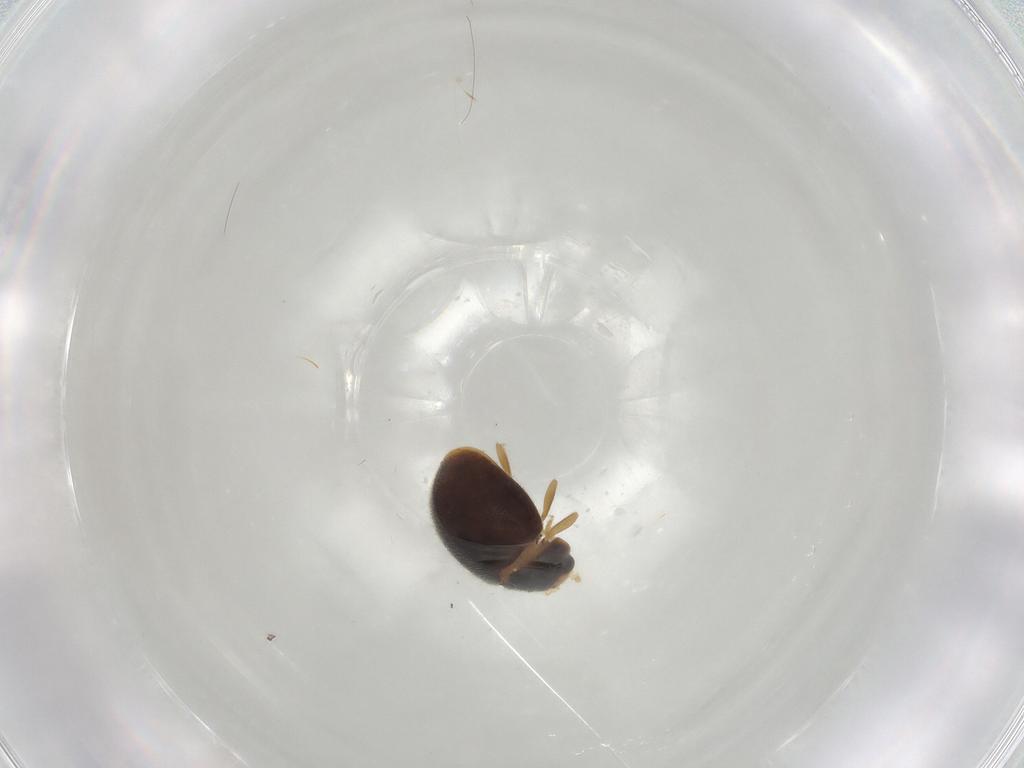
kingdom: Animalia
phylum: Arthropoda
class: Insecta
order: Coleoptera
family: Coccinellidae
